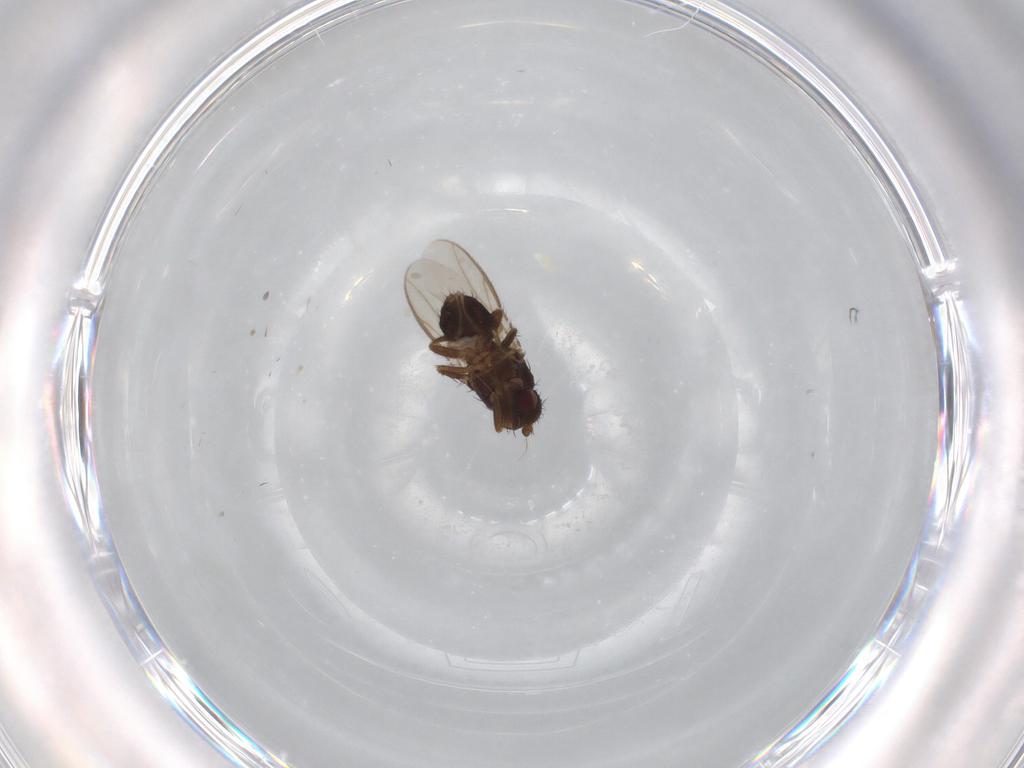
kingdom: Animalia
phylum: Arthropoda
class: Insecta
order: Diptera
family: Sphaeroceridae
